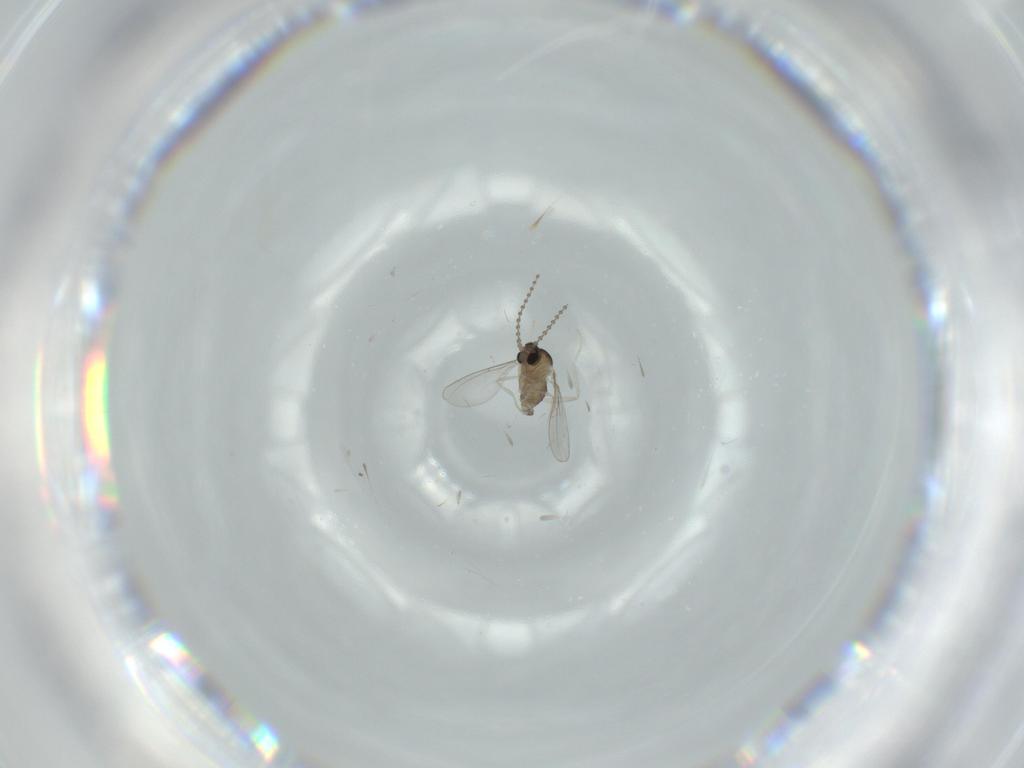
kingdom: Animalia
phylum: Arthropoda
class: Insecta
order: Diptera
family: Cecidomyiidae
